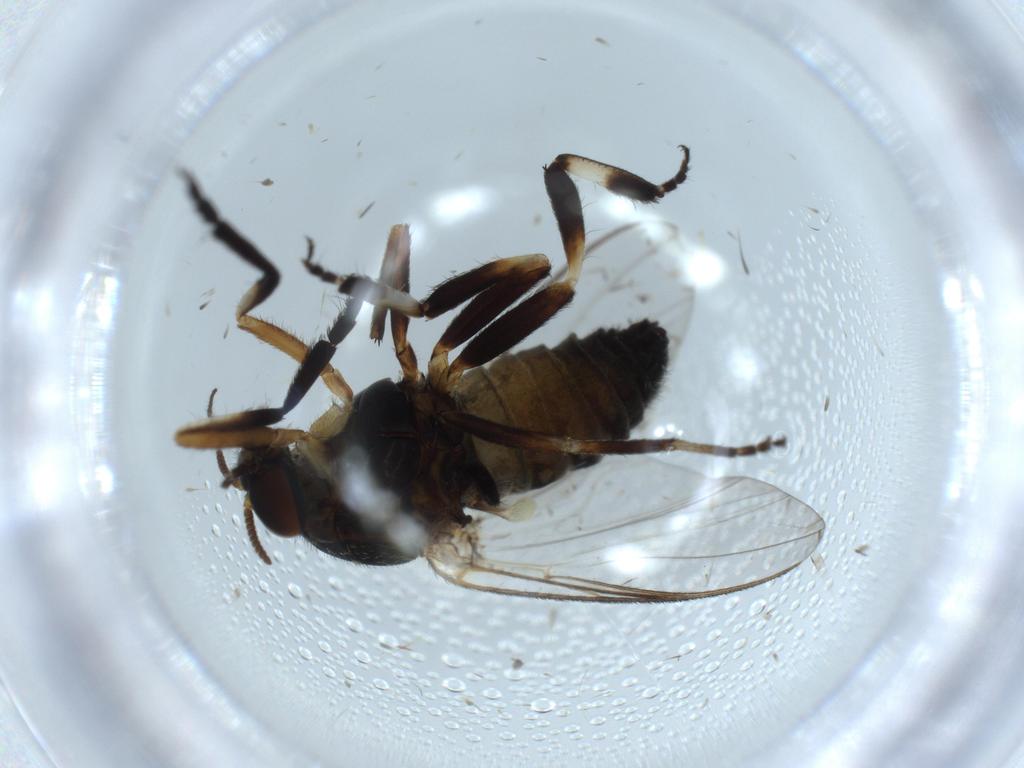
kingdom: Animalia
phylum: Arthropoda
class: Insecta
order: Diptera
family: Cecidomyiidae
